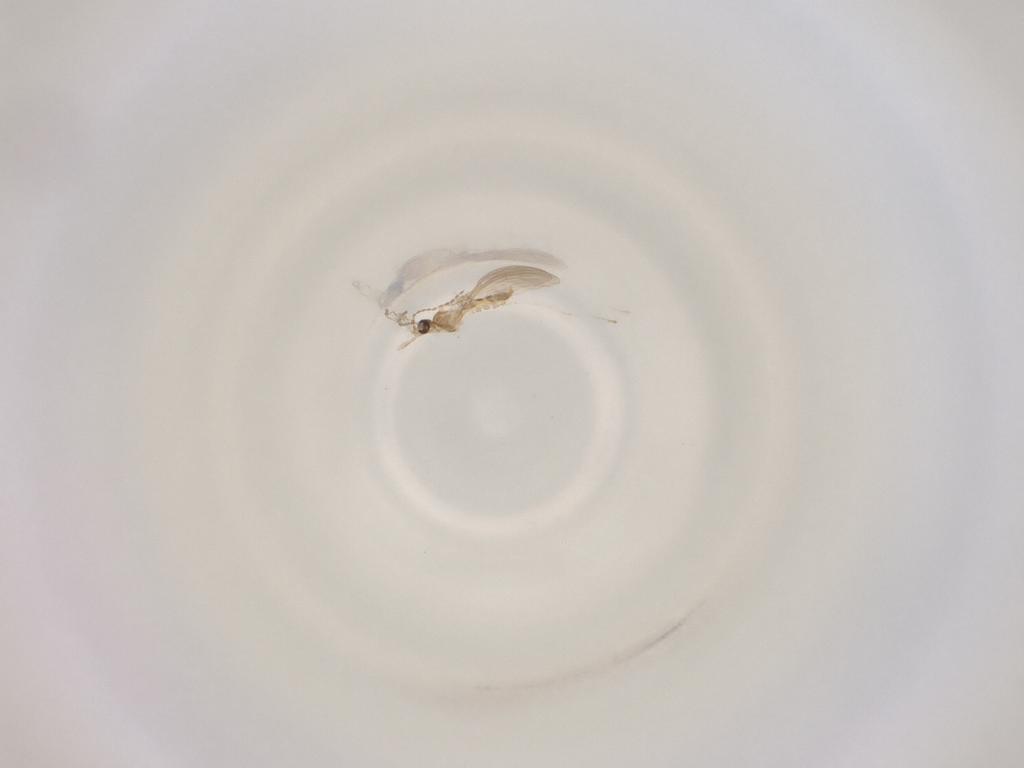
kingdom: Animalia
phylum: Arthropoda
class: Insecta
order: Diptera
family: Cecidomyiidae
